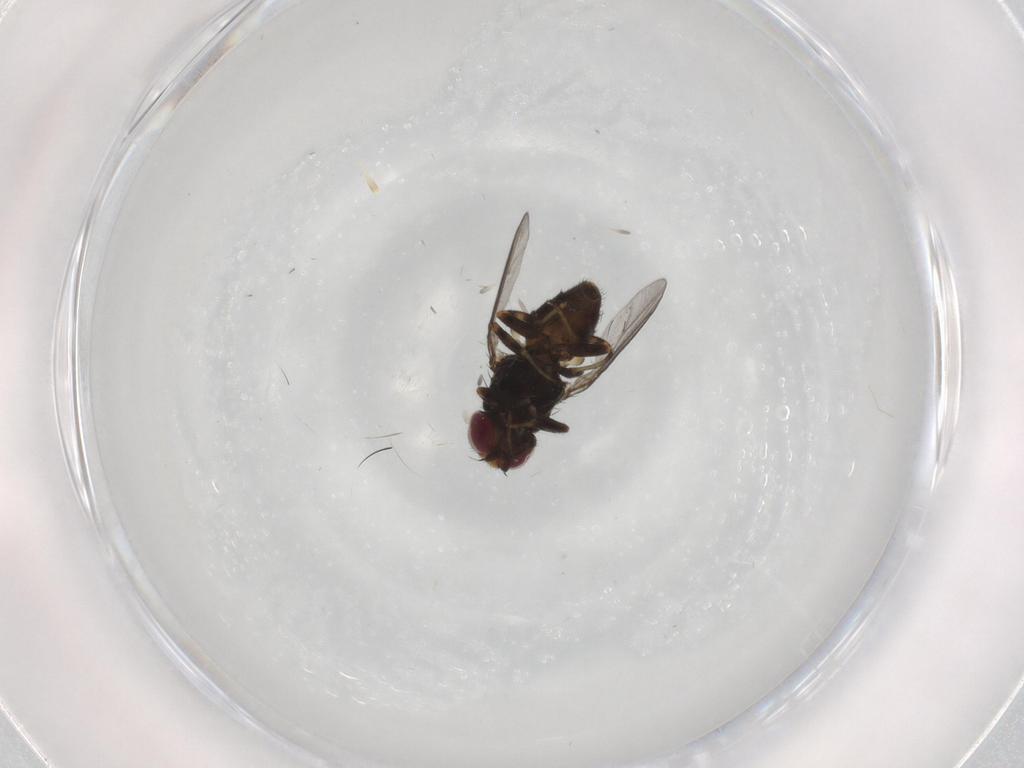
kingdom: Animalia
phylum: Arthropoda
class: Insecta
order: Diptera
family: Chloropidae
